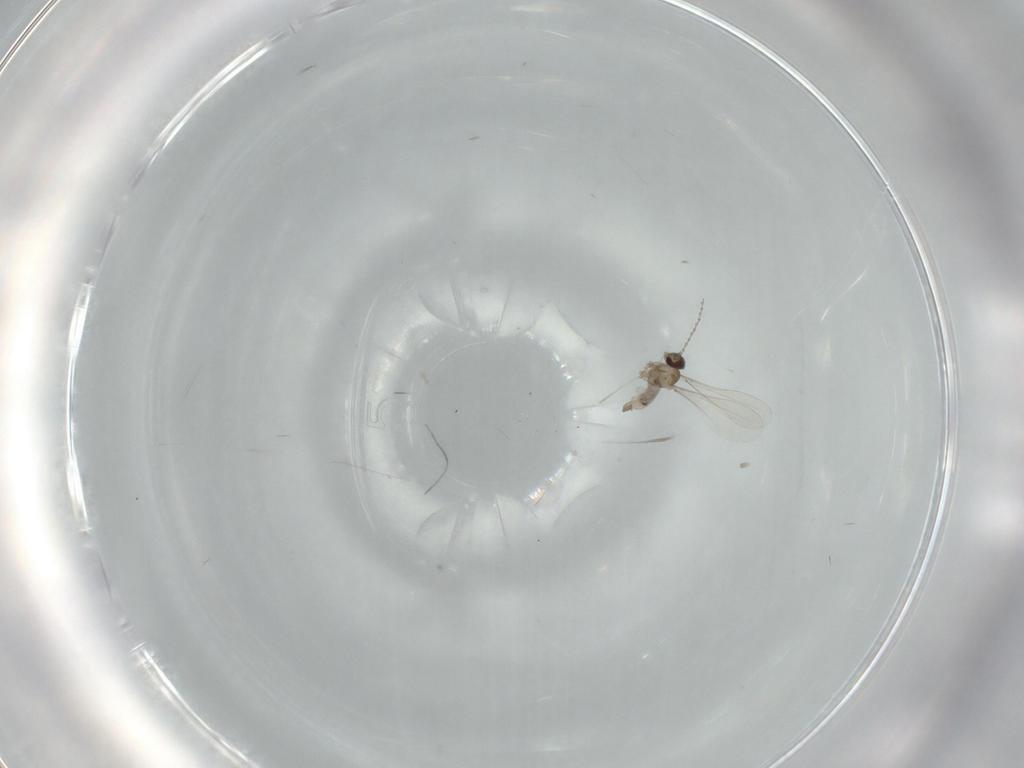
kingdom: Animalia
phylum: Arthropoda
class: Insecta
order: Diptera
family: Cecidomyiidae
